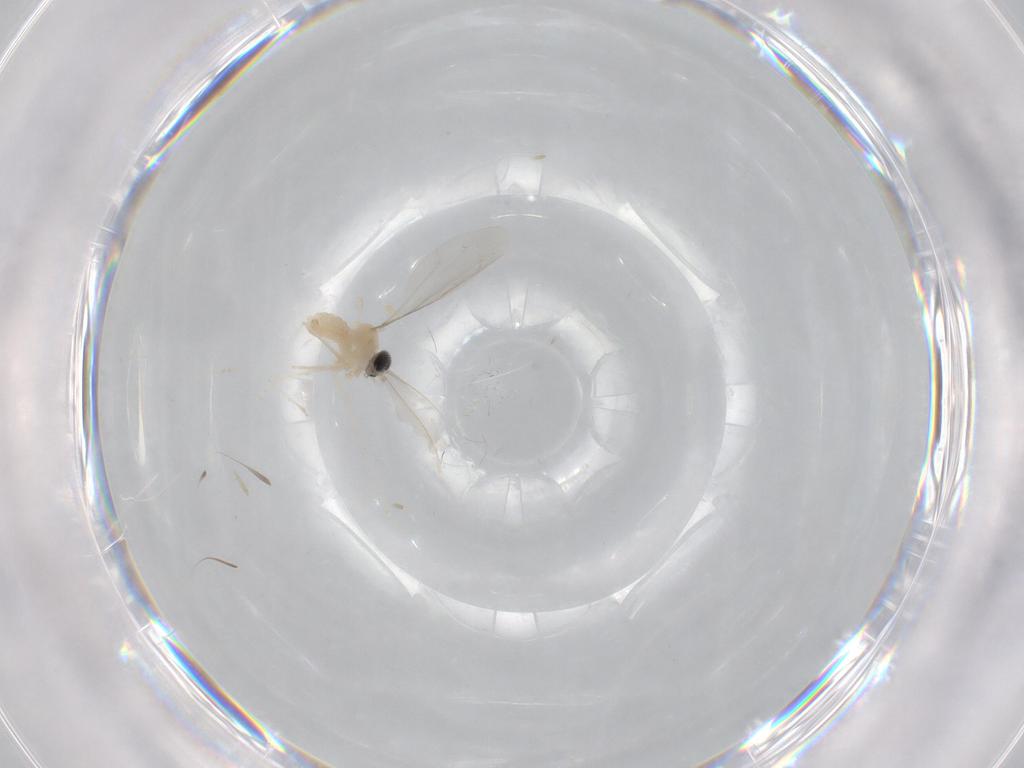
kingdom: Animalia
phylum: Arthropoda
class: Insecta
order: Diptera
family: Cecidomyiidae
